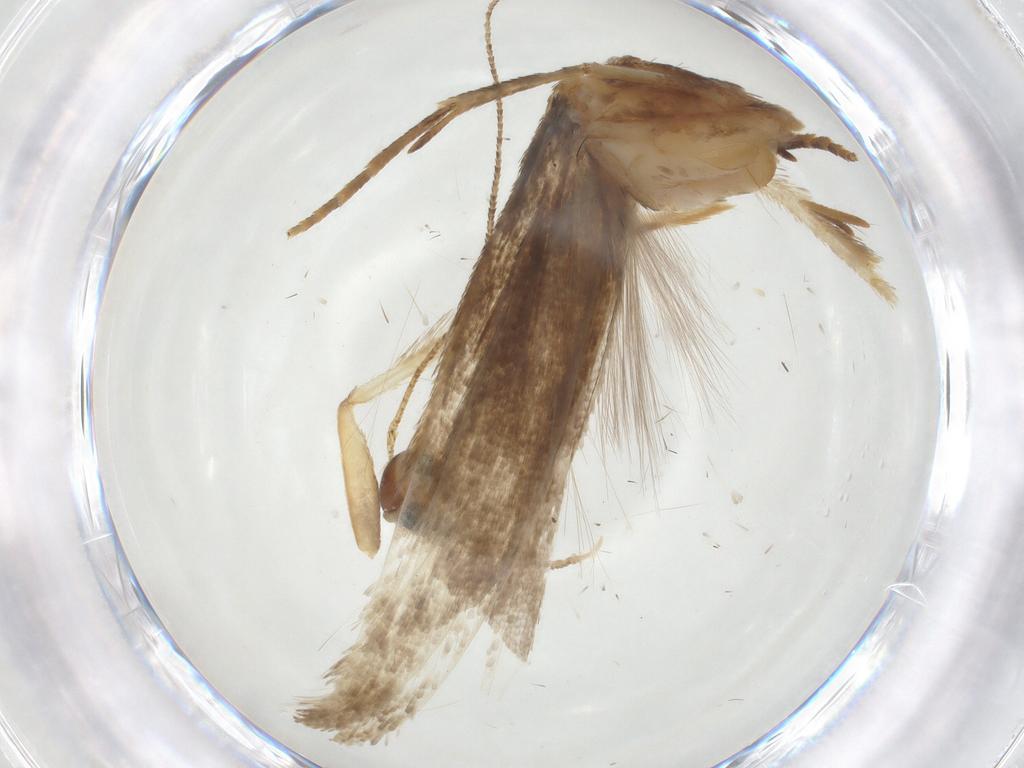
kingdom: Animalia
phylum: Arthropoda
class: Insecta
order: Lepidoptera
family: Gelechiidae
